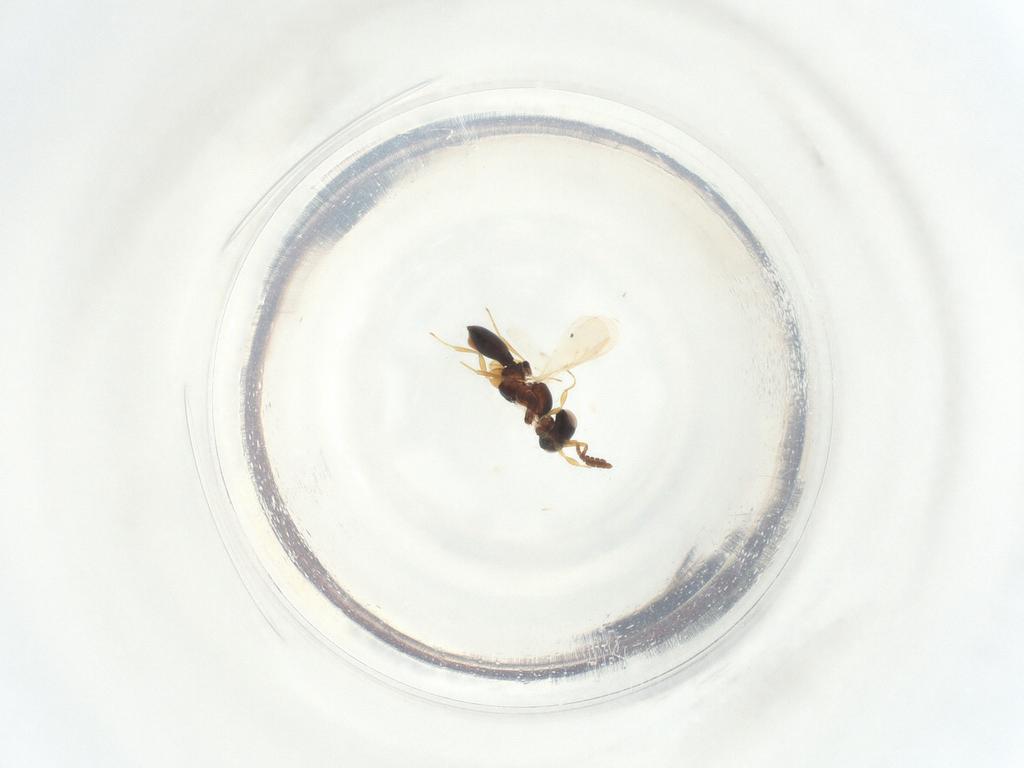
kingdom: Animalia
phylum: Arthropoda
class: Insecta
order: Hymenoptera
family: Scelionidae
